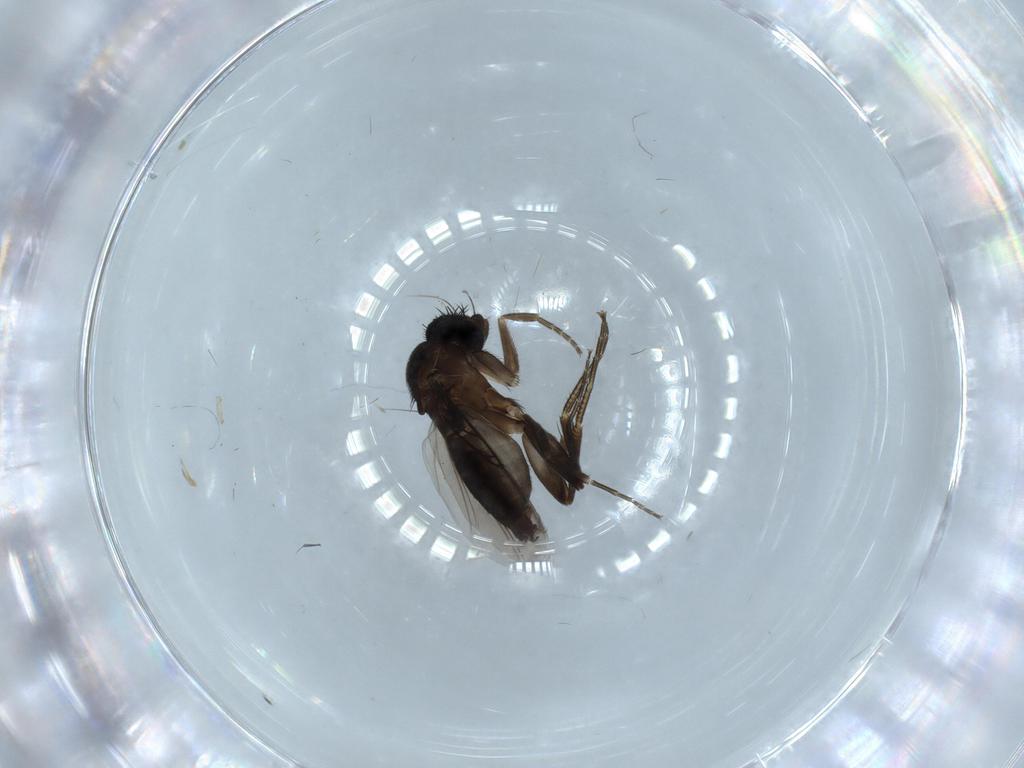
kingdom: Animalia
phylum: Arthropoda
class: Insecta
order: Diptera
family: Phoridae
